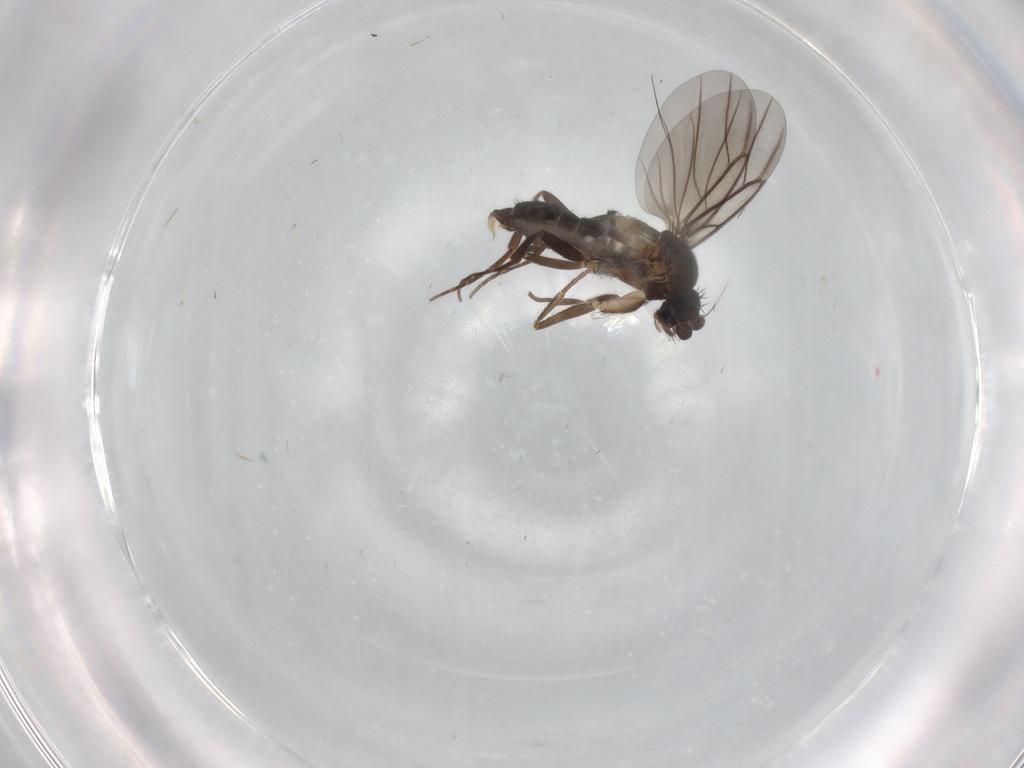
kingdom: Animalia
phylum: Arthropoda
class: Insecta
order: Diptera
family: Phoridae
